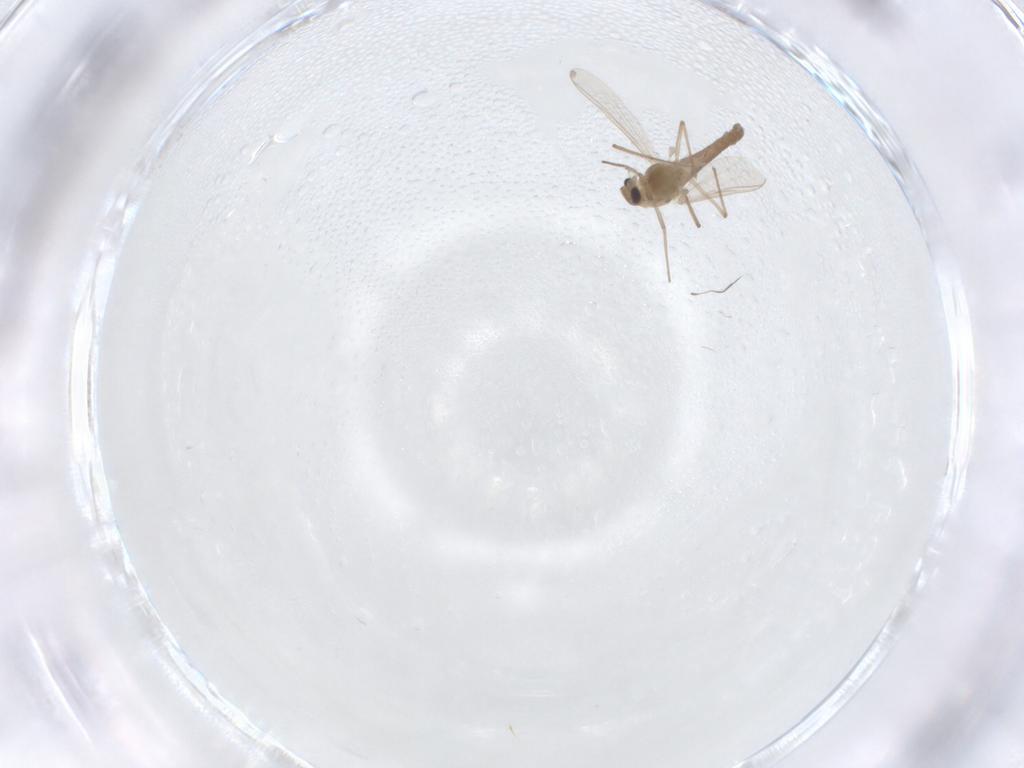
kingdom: Animalia
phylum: Arthropoda
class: Insecta
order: Diptera
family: Chironomidae
